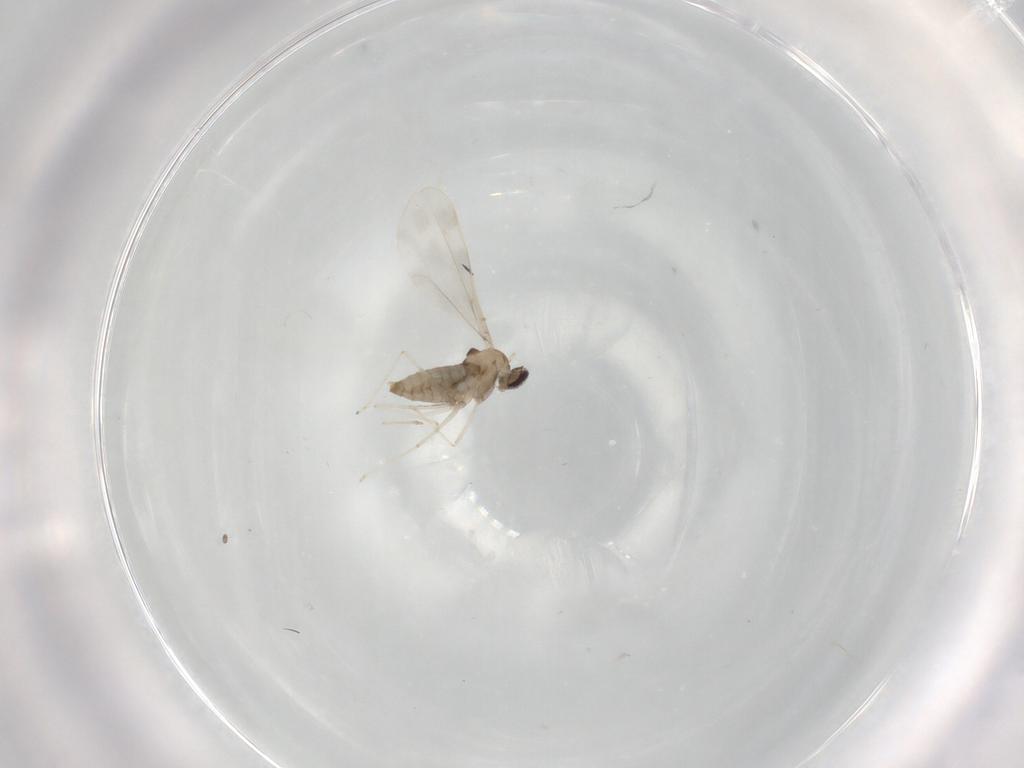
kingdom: Animalia
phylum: Arthropoda
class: Insecta
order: Diptera
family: Cecidomyiidae
